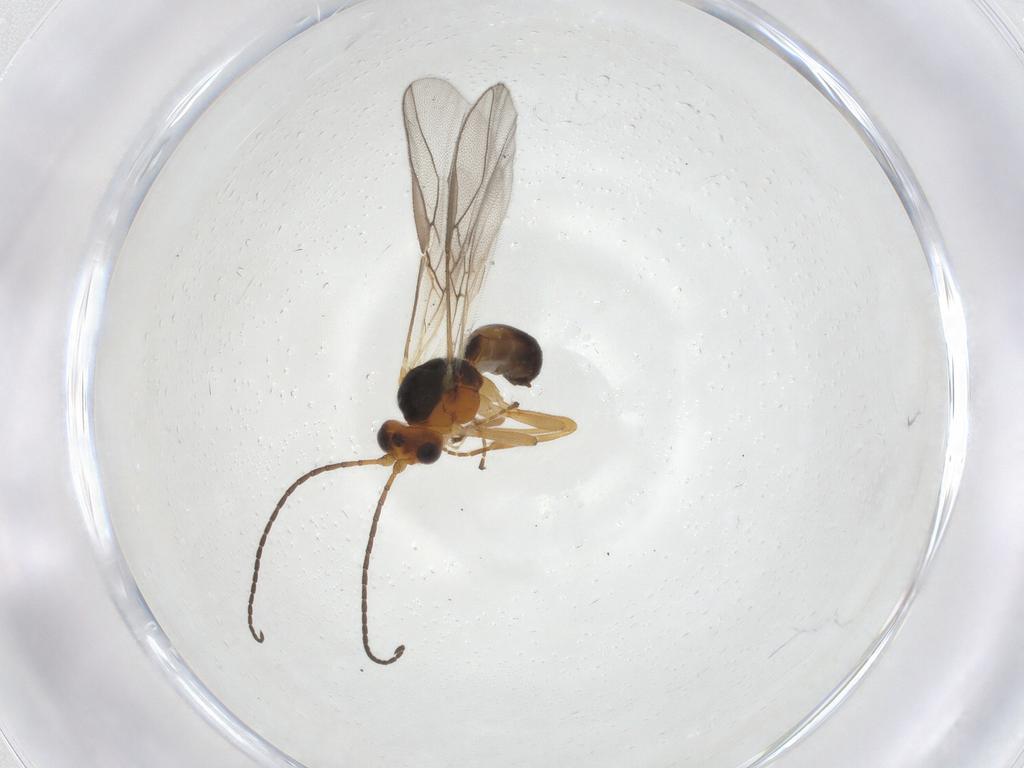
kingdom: Animalia
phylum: Arthropoda
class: Insecta
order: Hymenoptera
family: Braconidae
